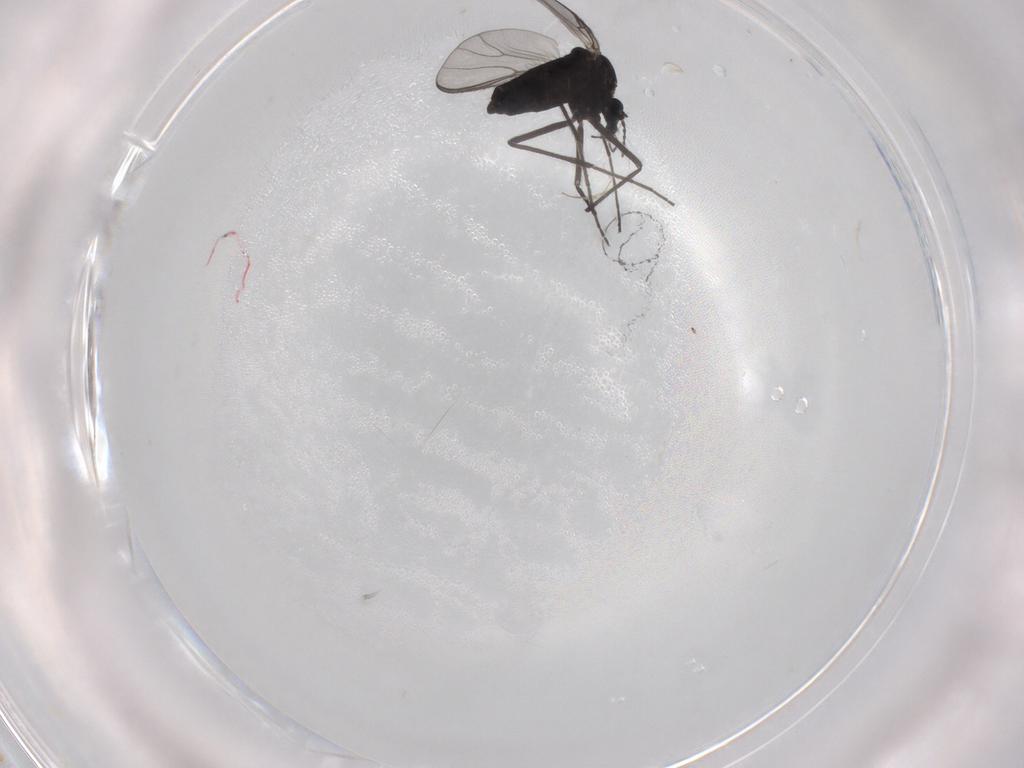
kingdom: Animalia
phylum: Arthropoda
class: Insecta
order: Diptera
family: Chironomidae
